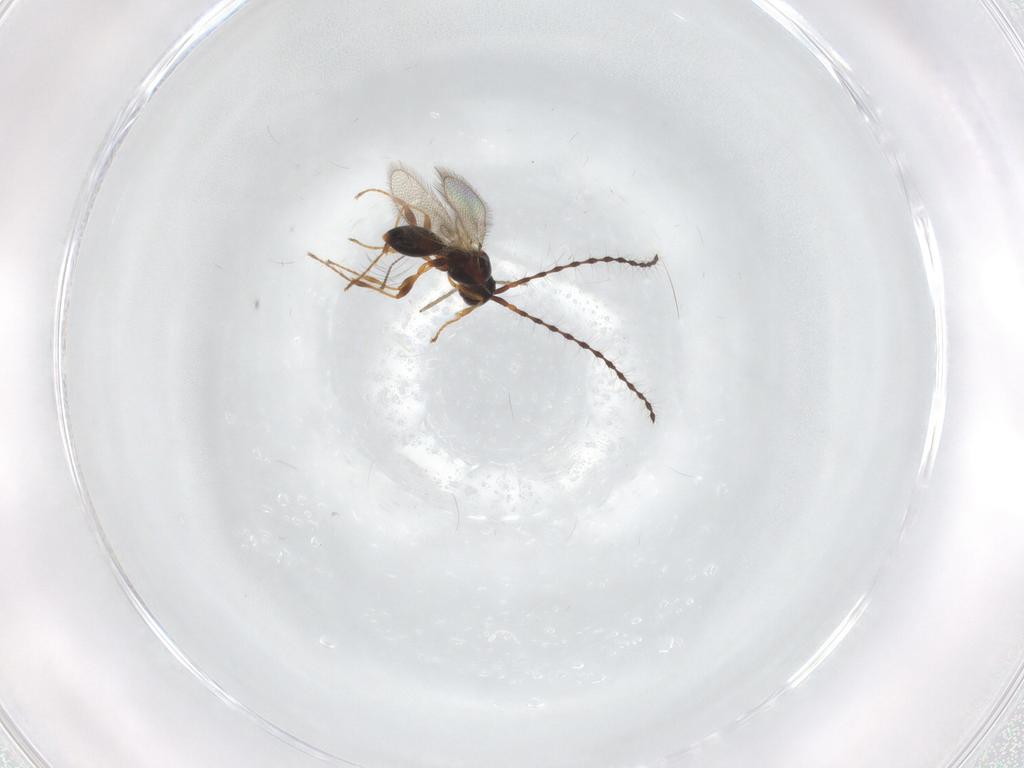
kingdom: Animalia
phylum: Arthropoda
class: Insecta
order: Hymenoptera
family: Diapriidae
